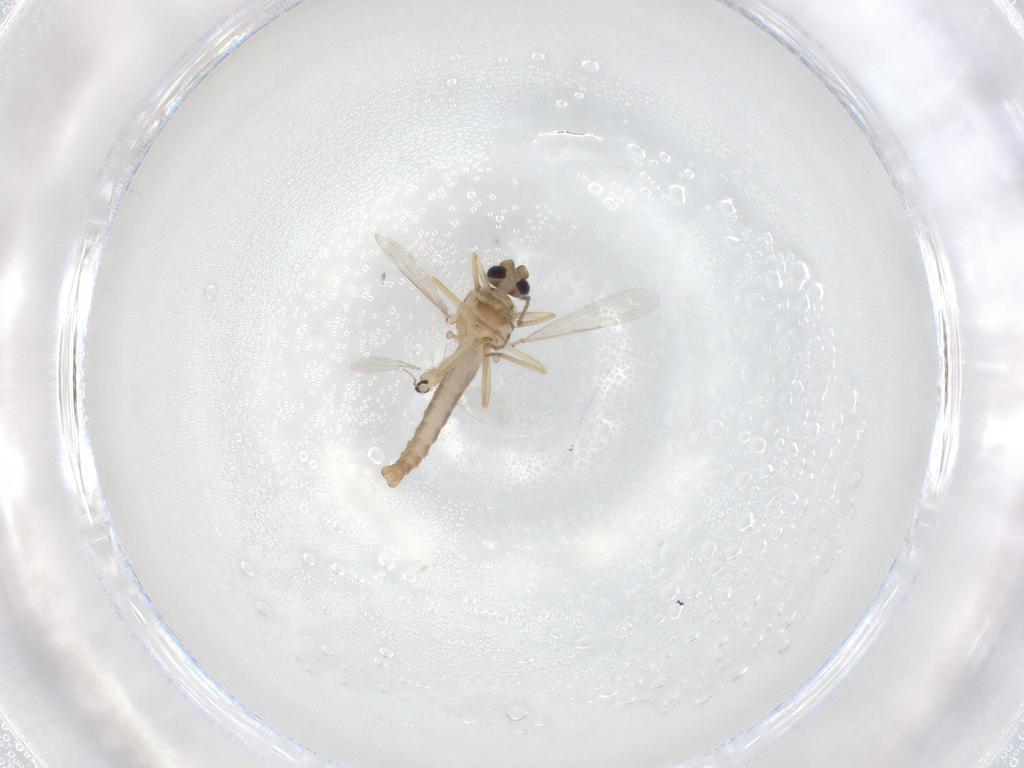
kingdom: Animalia
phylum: Arthropoda
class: Insecta
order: Diptera
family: Ceratopogonidae
